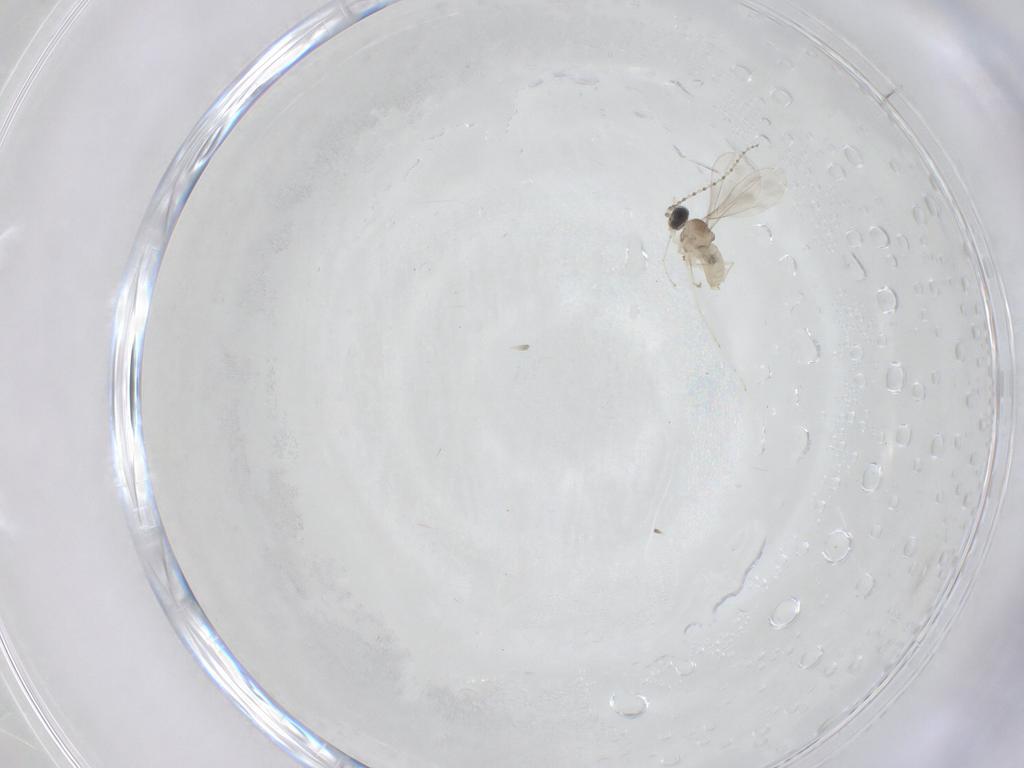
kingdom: Animalia
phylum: Arthropoda
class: Insecta
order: Diptera
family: Cecidomyiidae
